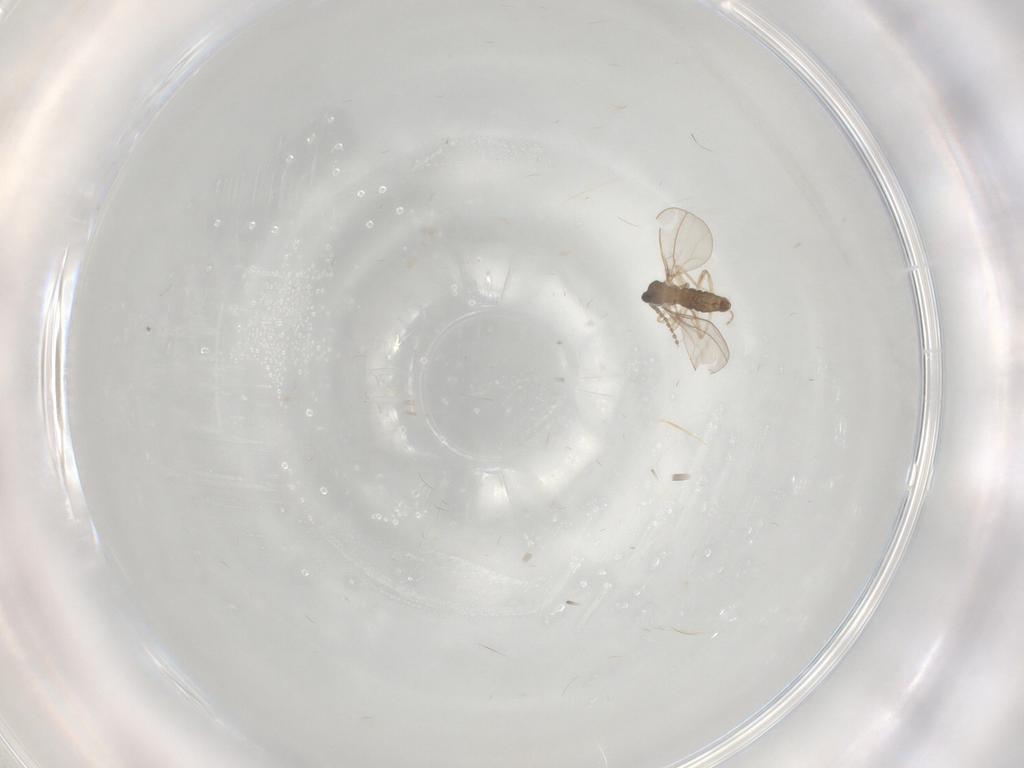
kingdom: Animalia
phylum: Arthropoda
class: Insecta
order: Diptera
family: Cecidomyiidae
